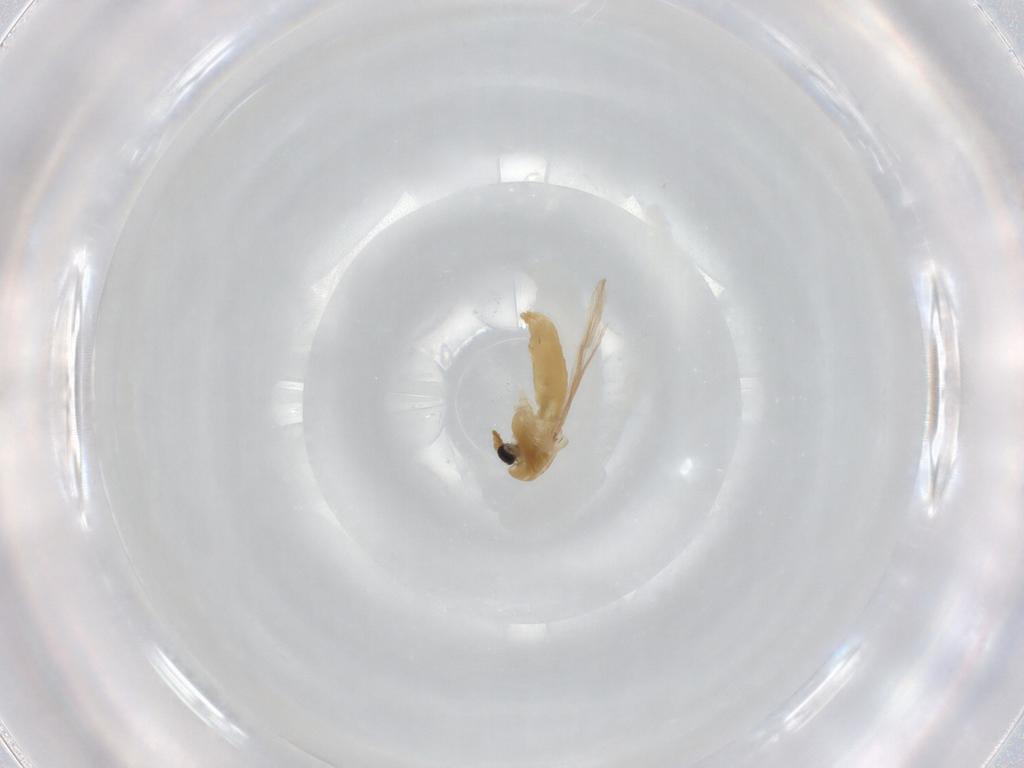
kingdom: Animalia
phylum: Arthropoda
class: Insecta
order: Diptera
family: Chironomidae
